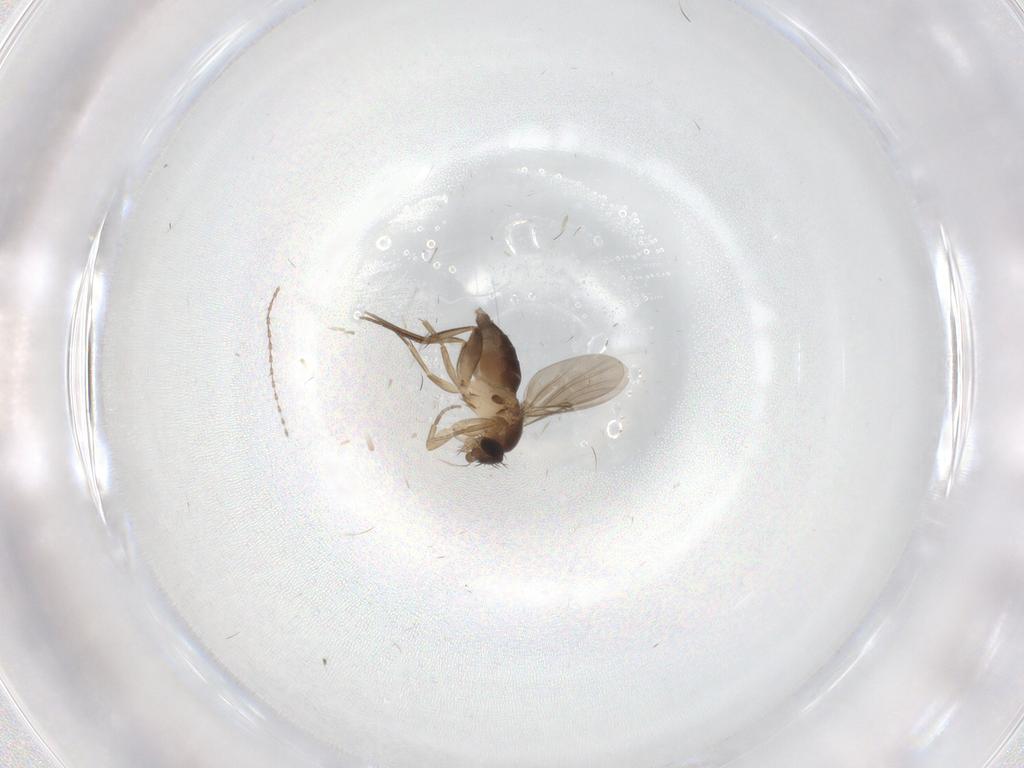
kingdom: Animalia
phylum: Arthropoda
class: Insecta
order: Diptera
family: Phoridae
